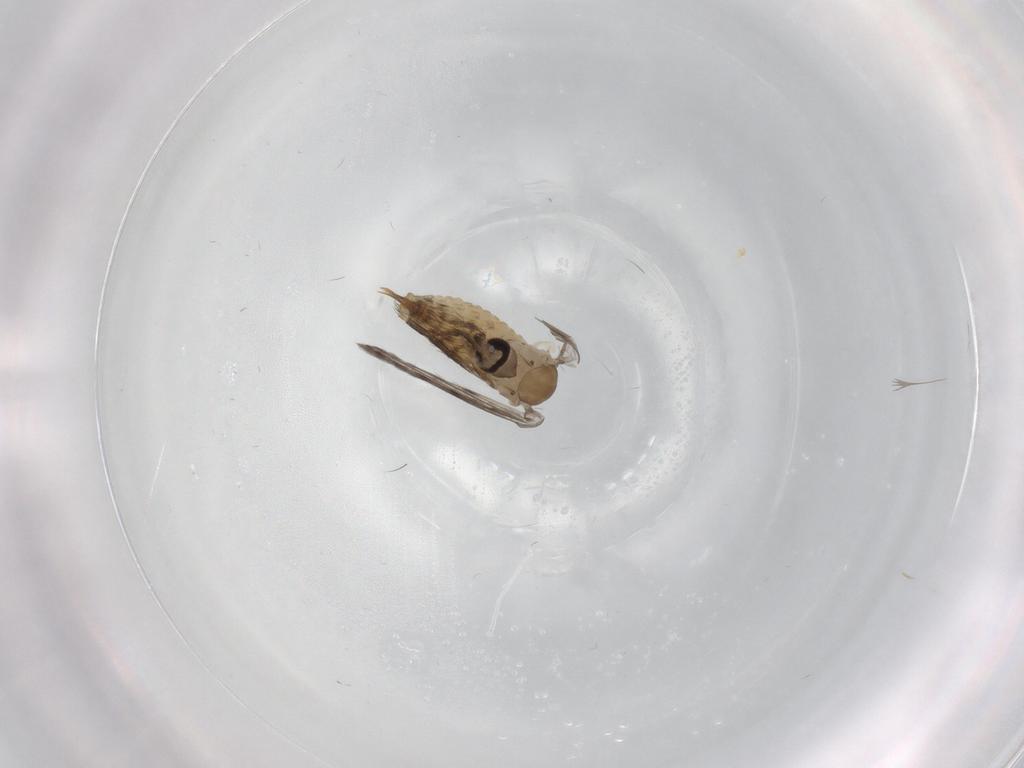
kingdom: Animalia
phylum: Arthropoda
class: Insecta
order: Diptera
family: Psychodidae
